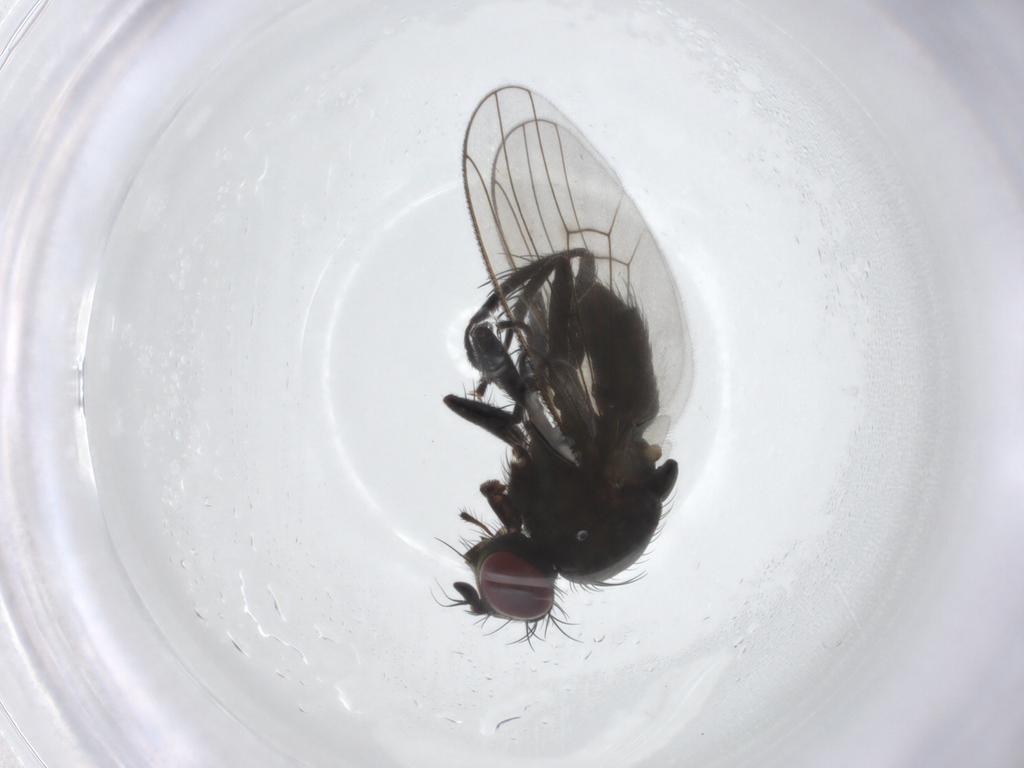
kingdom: Animalia
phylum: Arthropoda
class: Insecta
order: Diptera
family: Muscidae
